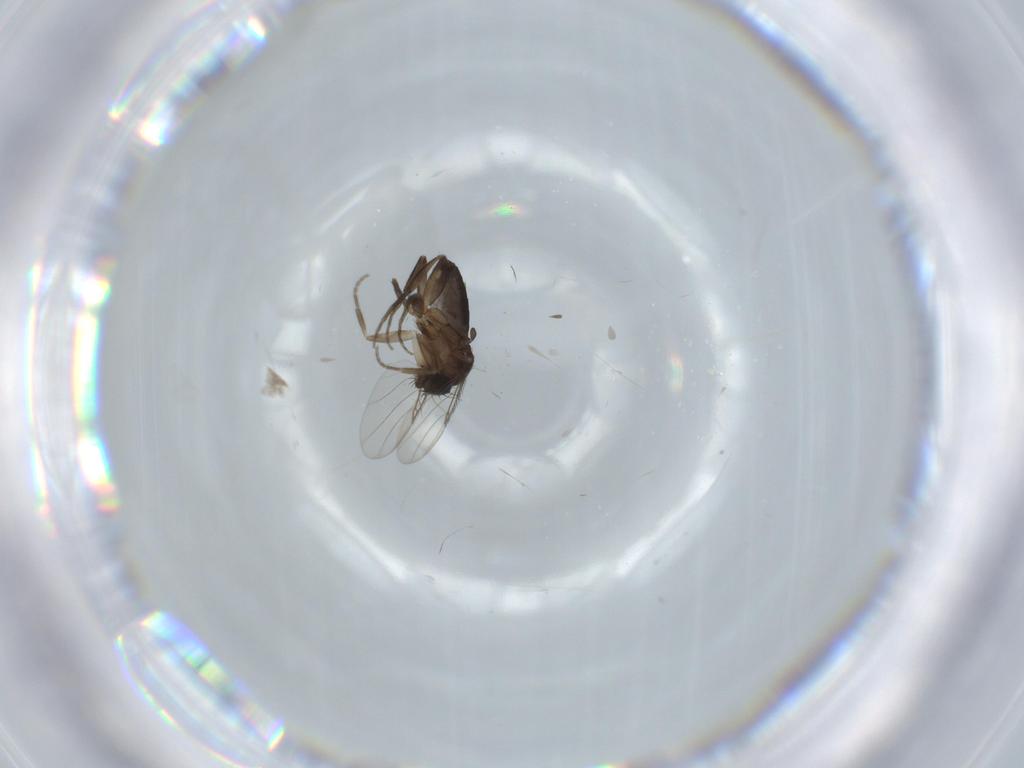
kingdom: Animalia
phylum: Arthropoda
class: Insecta
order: Diptera
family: Phoridae
